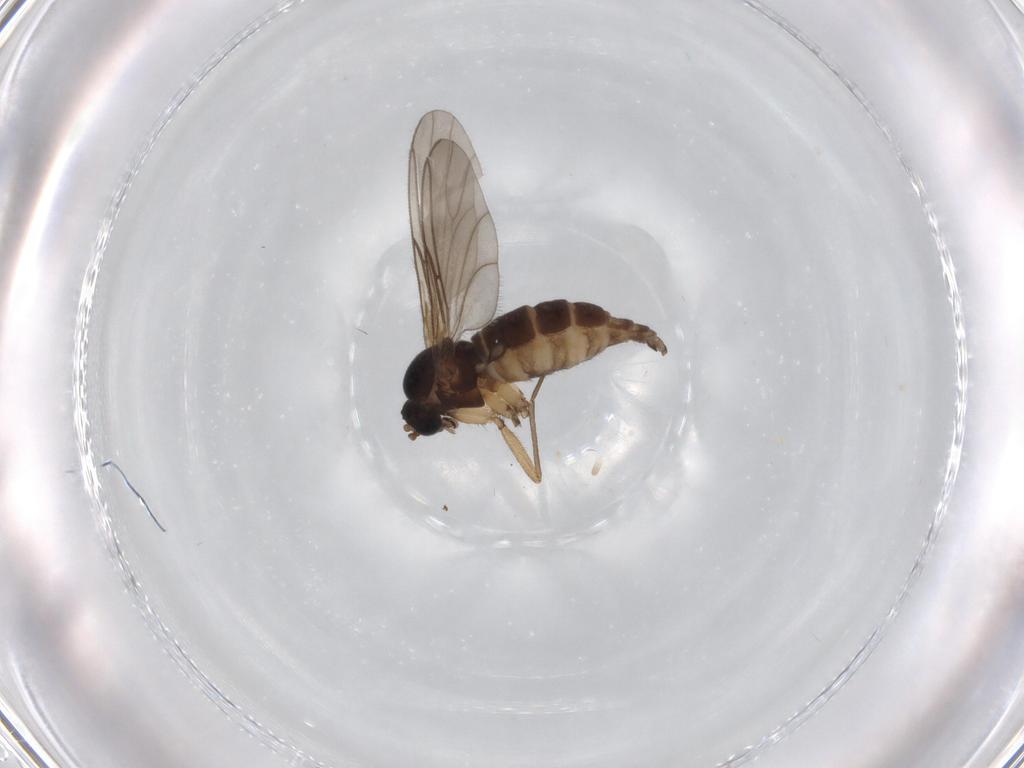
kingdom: Animalia
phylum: Arthropoda
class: Insecta
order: Diptera
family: Sciaridae
